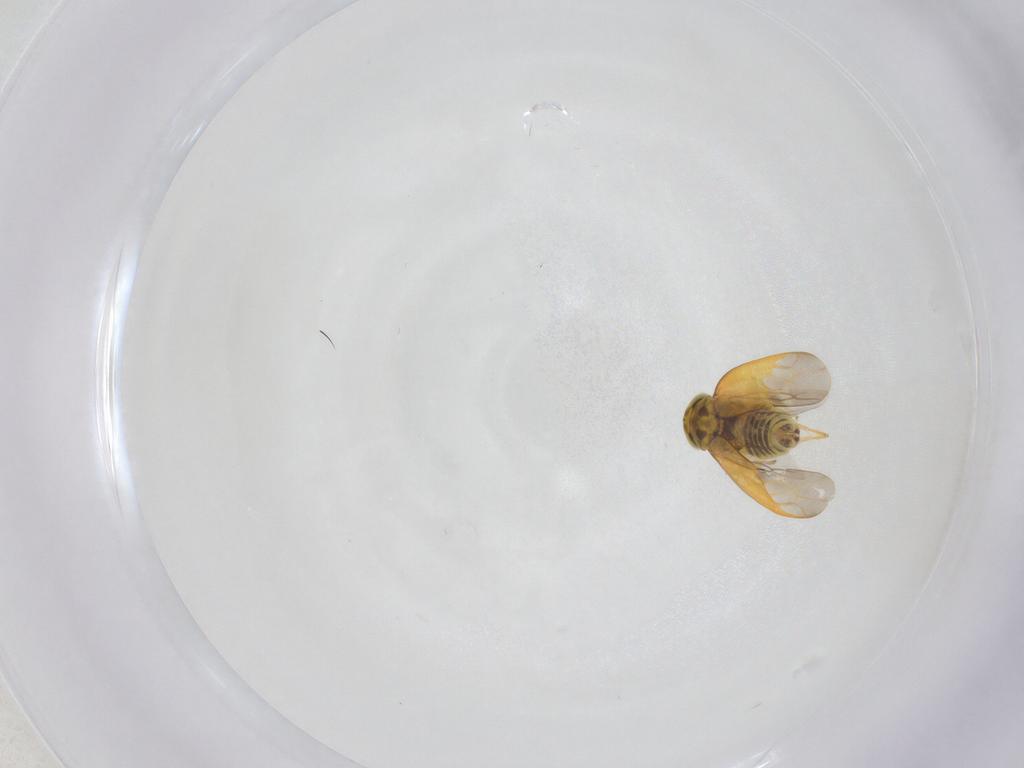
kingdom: Animalia
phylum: Arthropoda
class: Insecta
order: Hemiptera
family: Cicadellidae
